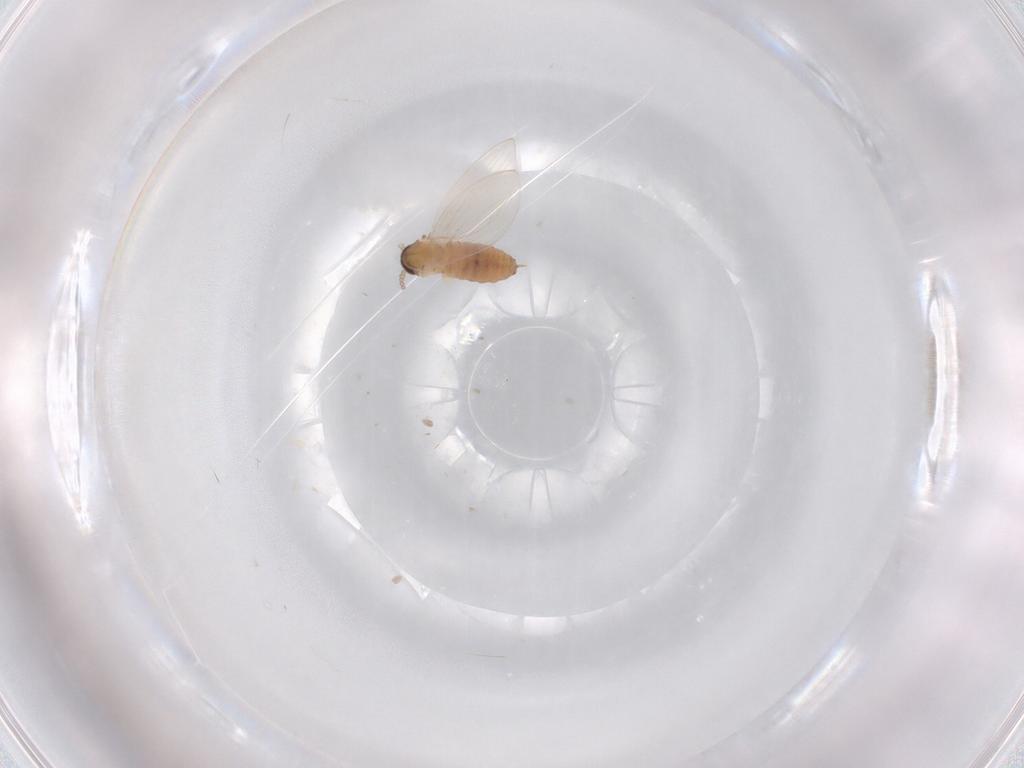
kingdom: Animalia
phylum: Arthropoda
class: Insecta
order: Diptera
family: Psychodidae
